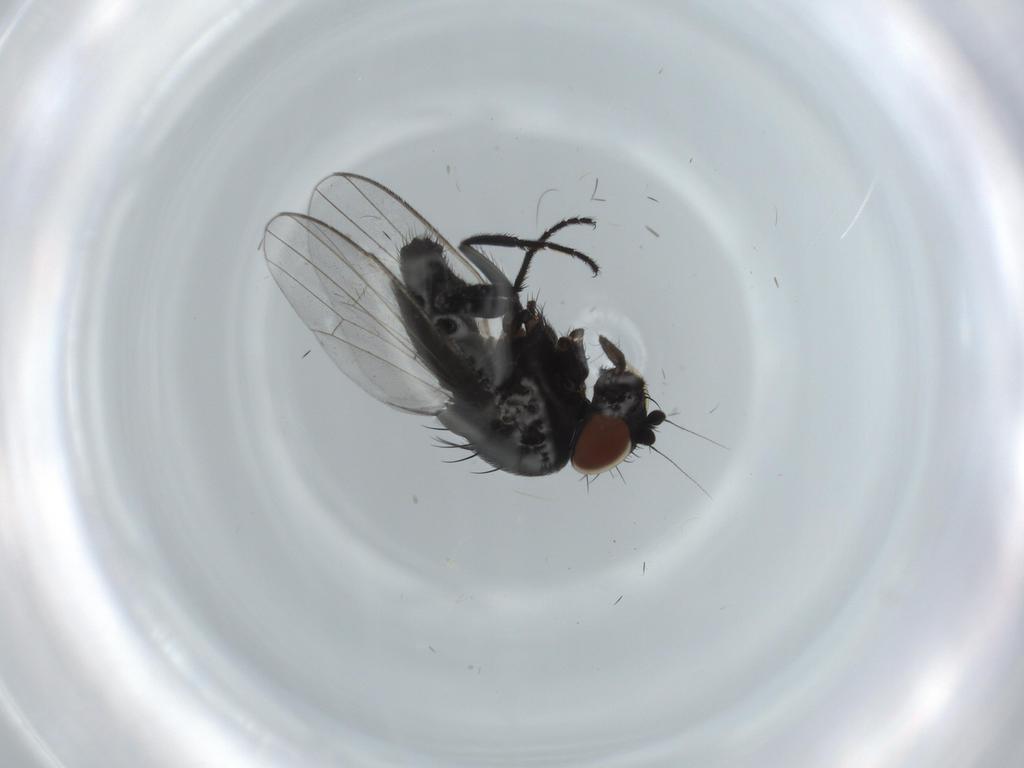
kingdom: Animalia
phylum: Arthropoda
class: Insecta
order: Diptera
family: Milichiidae
